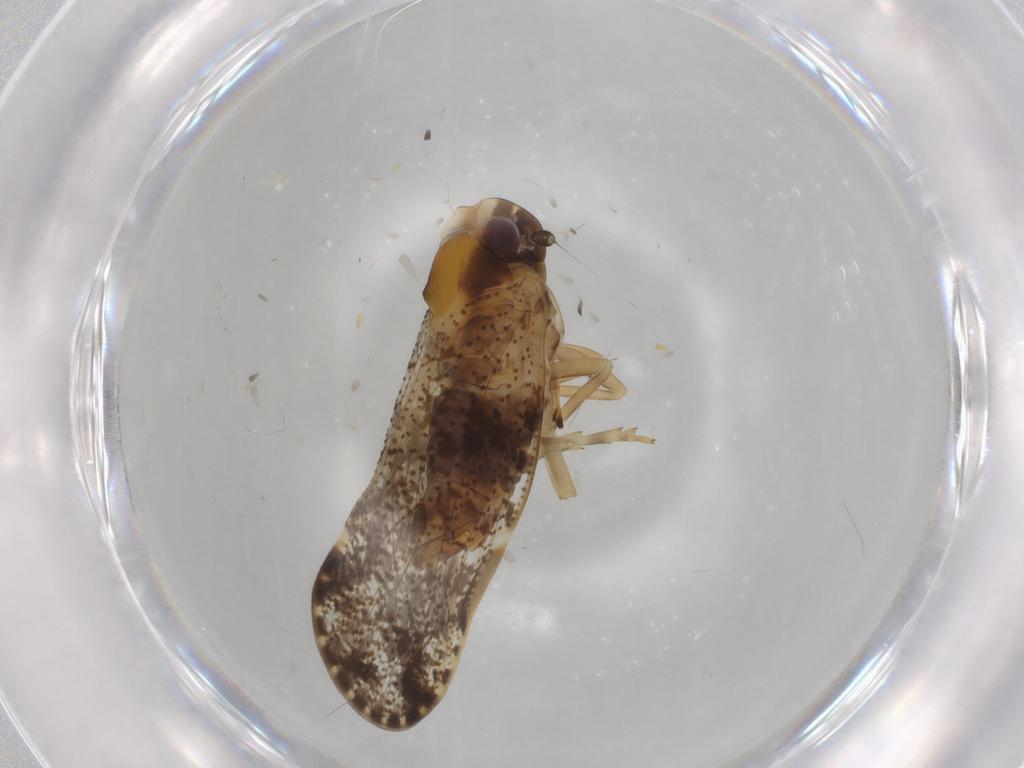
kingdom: Animalia
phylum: Arthropoda
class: Insecta
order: Hemiptera
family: Cixiidae
